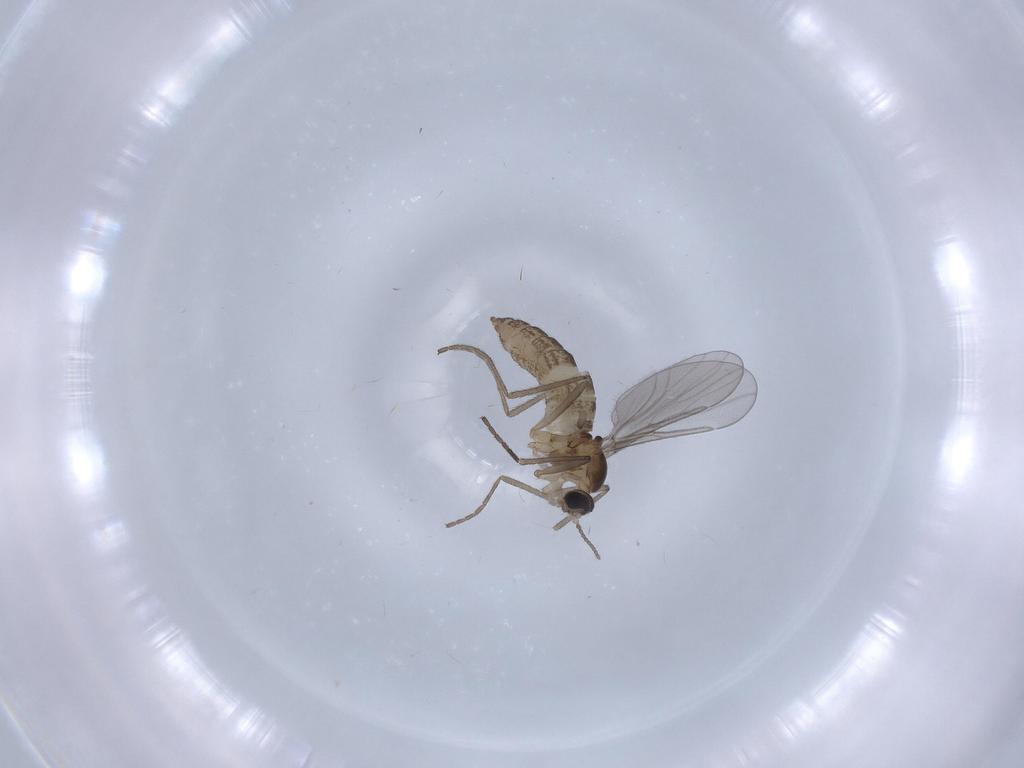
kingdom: Animalia
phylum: Arthropoda
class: Insecta
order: Diptera
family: Cecidomyiidae
